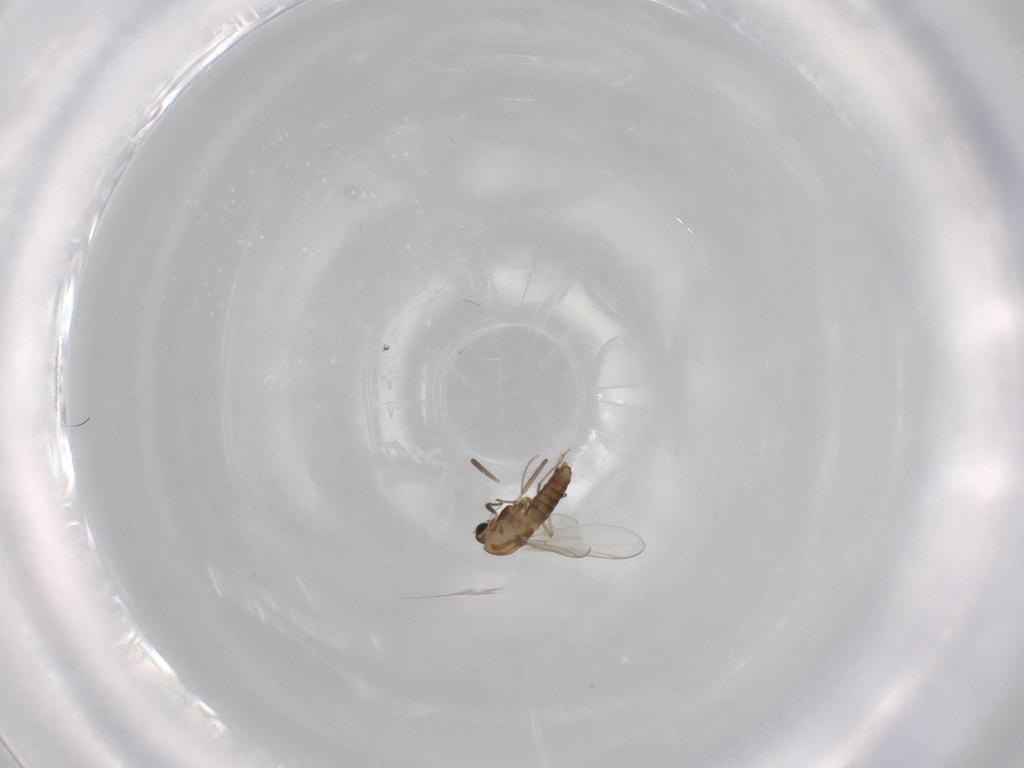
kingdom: Animalia
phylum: Arthropoda
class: Insecta
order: Diptera
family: Chironomidae
